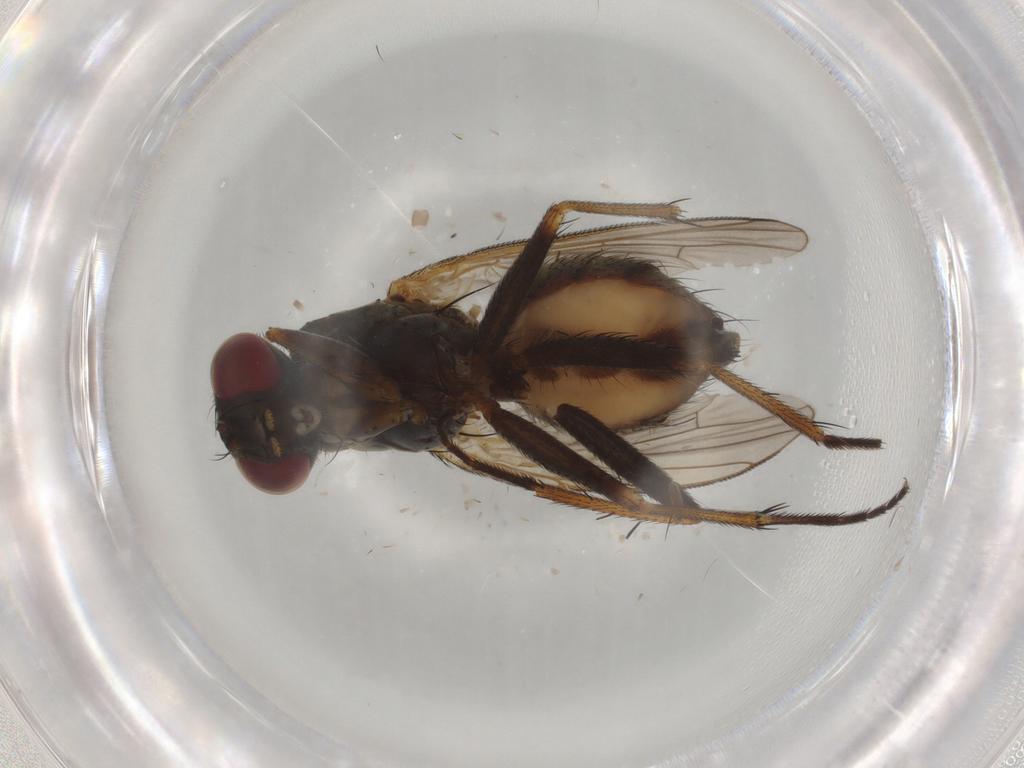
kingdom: Animalia
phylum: Arthropoda
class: Insecta
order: Diptera
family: Muscidae
